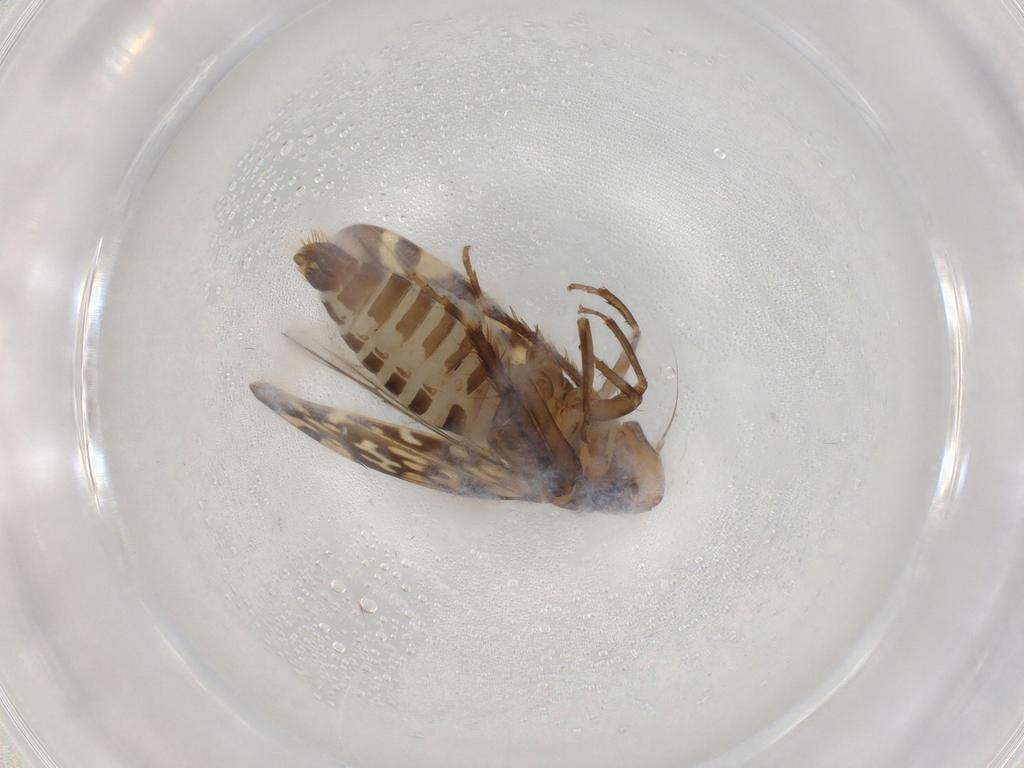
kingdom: Animalia
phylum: Arthropoda
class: Insecta
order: Hemiptera
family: Cicadellidae
